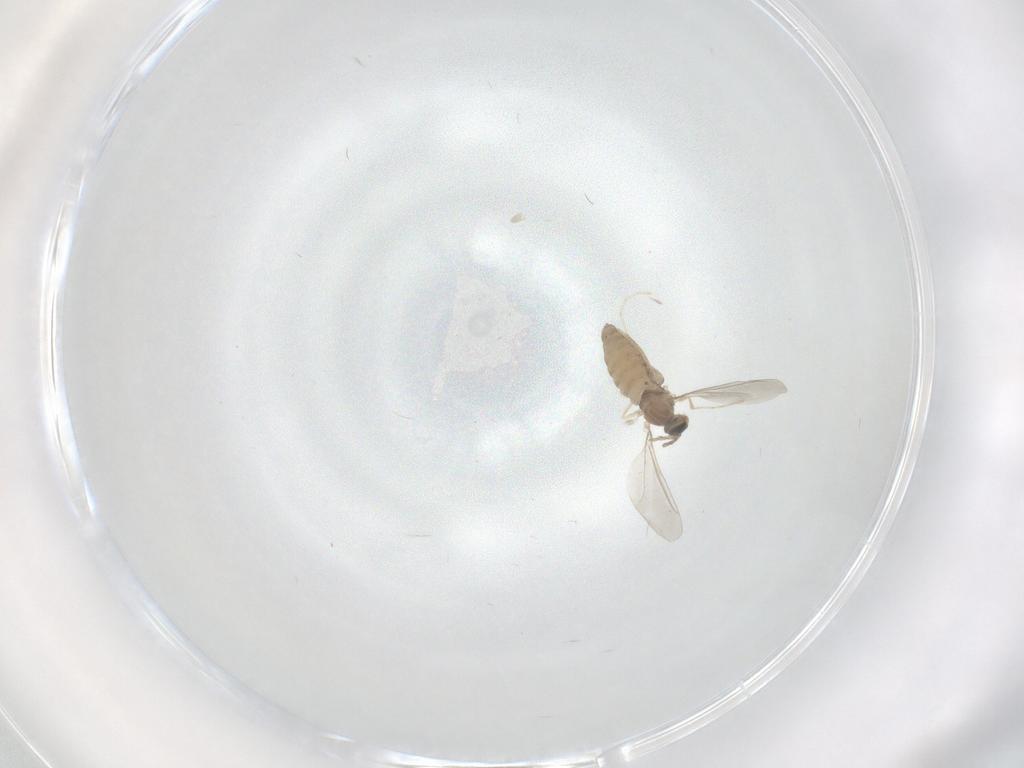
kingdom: Animalia
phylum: Arthropoda
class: Insecta
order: Diptera
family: Cecidomyiidae
